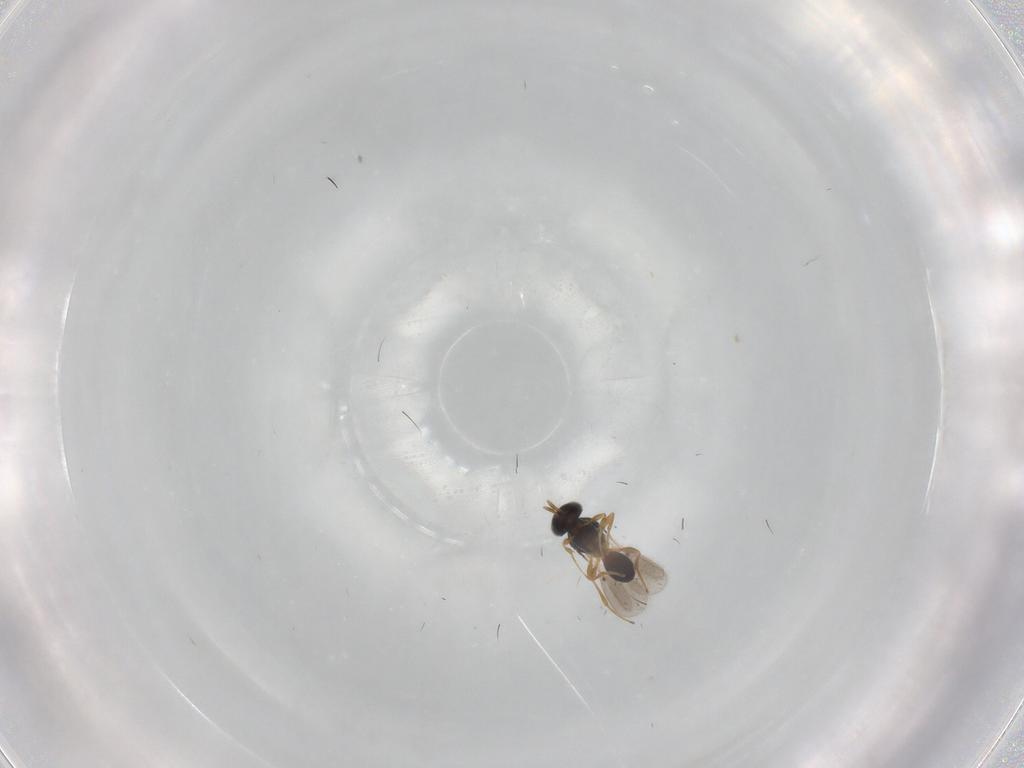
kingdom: Animalia
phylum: Arthropoda
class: Insecta
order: Hymenoptera
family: Platygastridae
